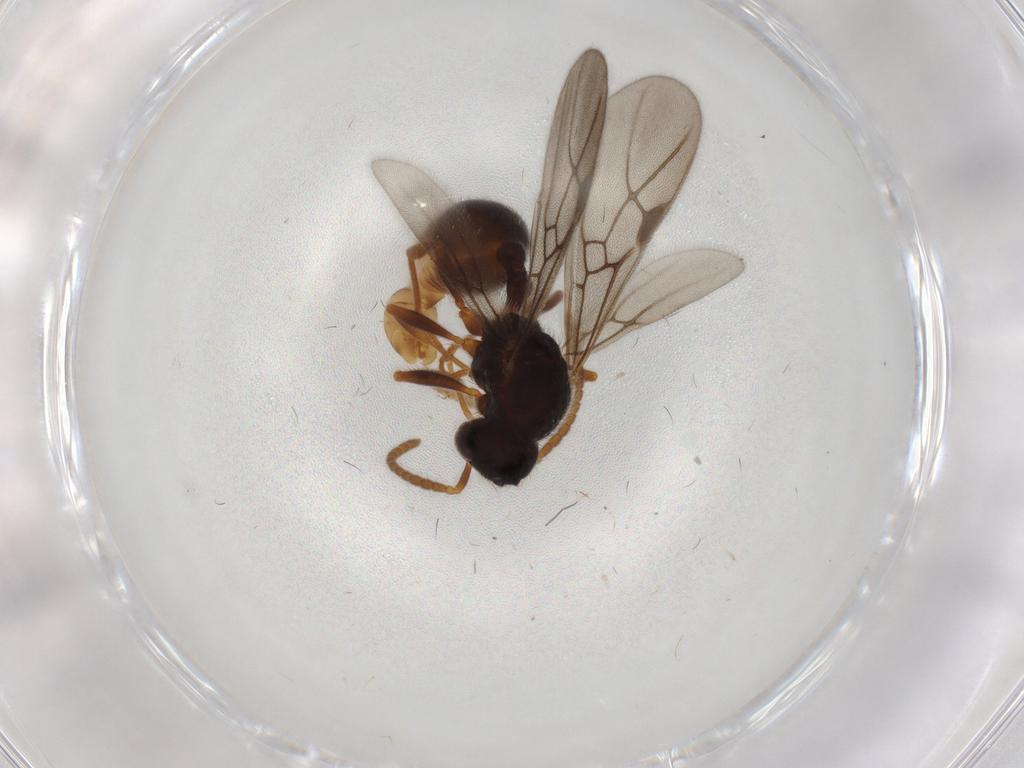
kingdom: Animalia
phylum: Arthropoda
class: Insecta
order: Hymenoptera
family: Formicidae
